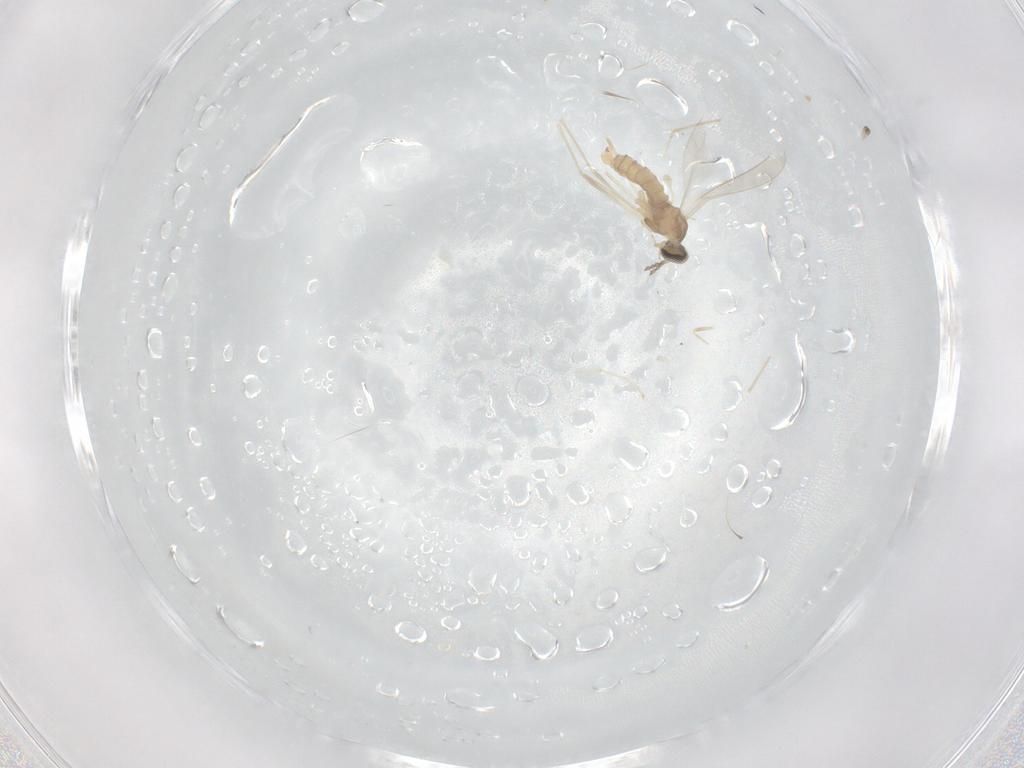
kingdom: Animalia
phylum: Arthropoda
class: Insecta
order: Diptera
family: Cecidomyiidae
